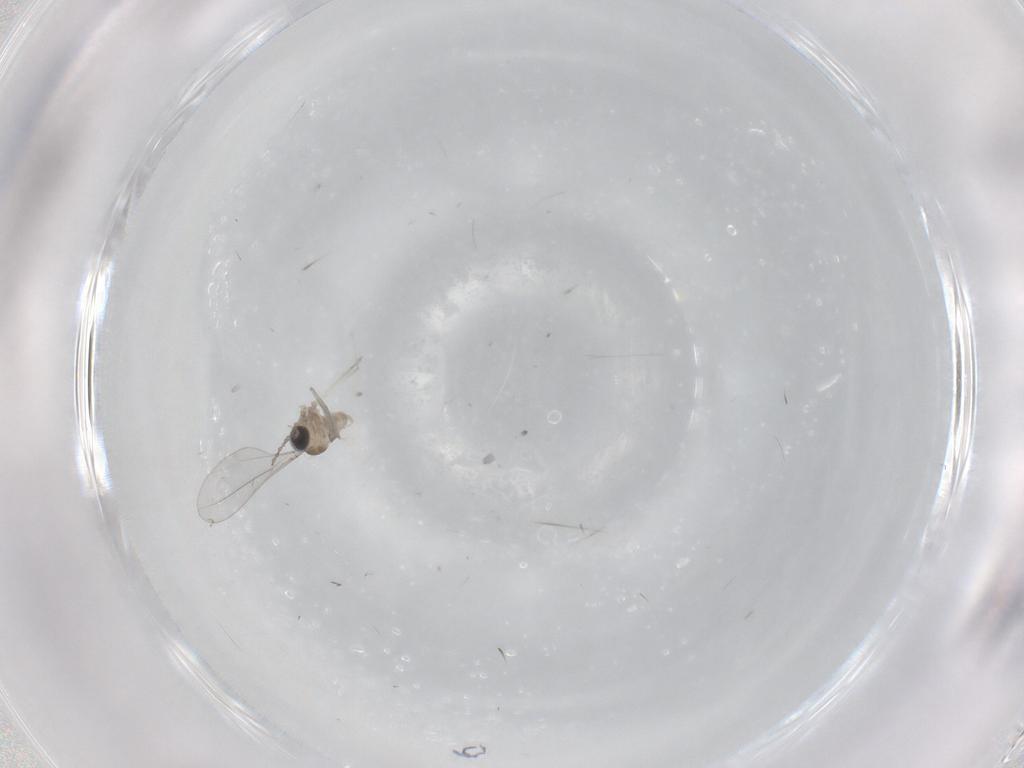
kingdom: Animalia
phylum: Arthropoda
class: Insecta
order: Diptera
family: Cecidomyiidae
